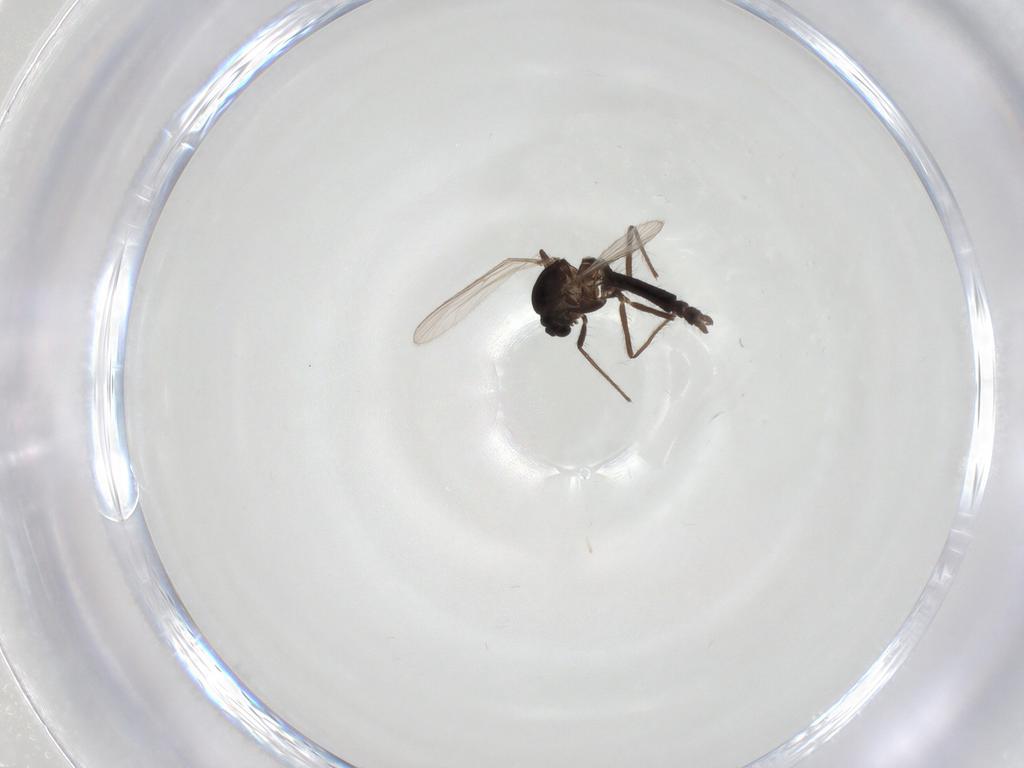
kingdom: Animalia
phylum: Arthropoda
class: Insecta
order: Diptera
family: Chironomidae
